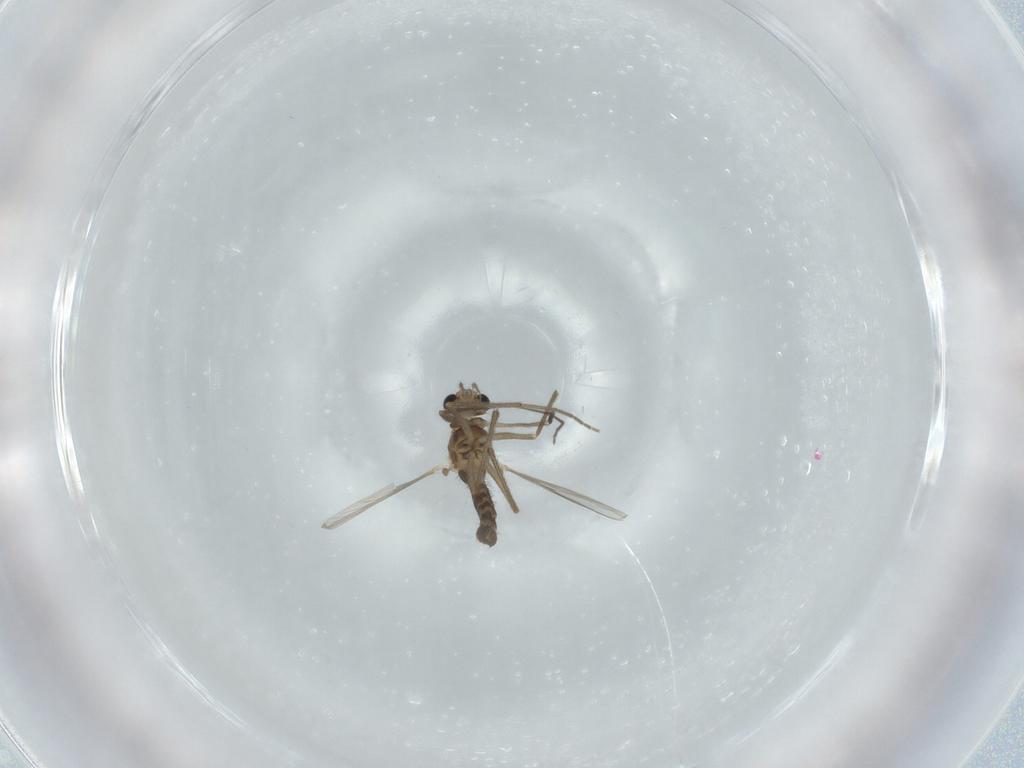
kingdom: Animalia
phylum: Arthropoda
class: Insecta
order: Diptera
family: Chironomidae
